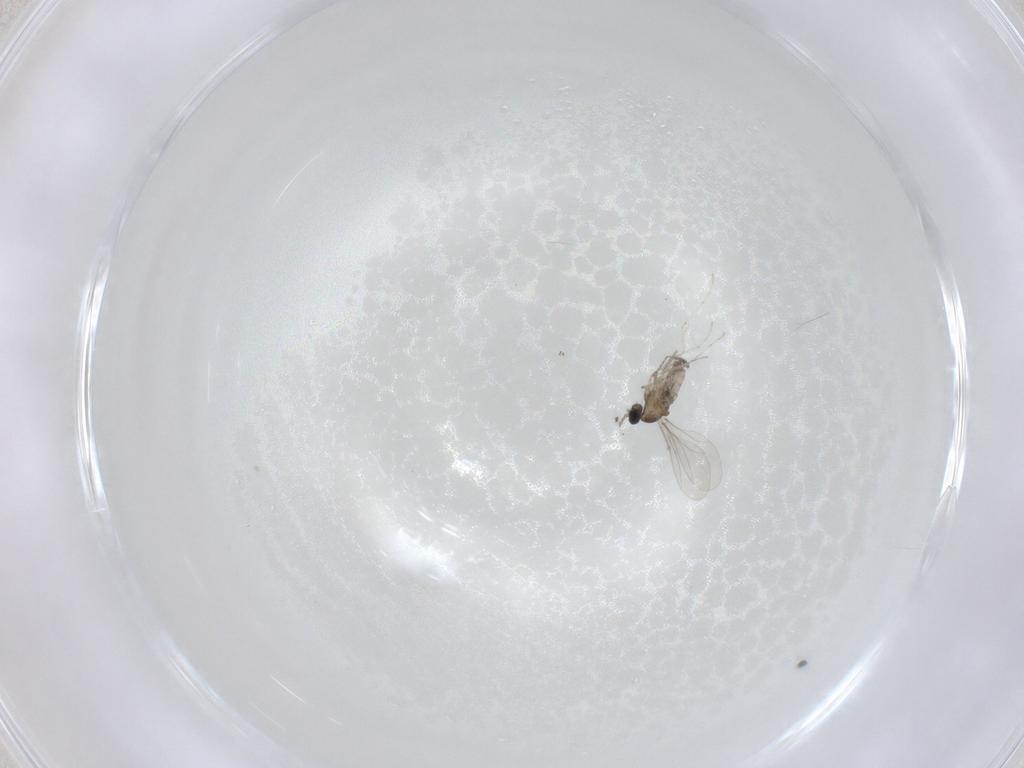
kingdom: Animalia
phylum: Arthropoda
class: Insecta
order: Diptera
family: Cecidomyiidae
